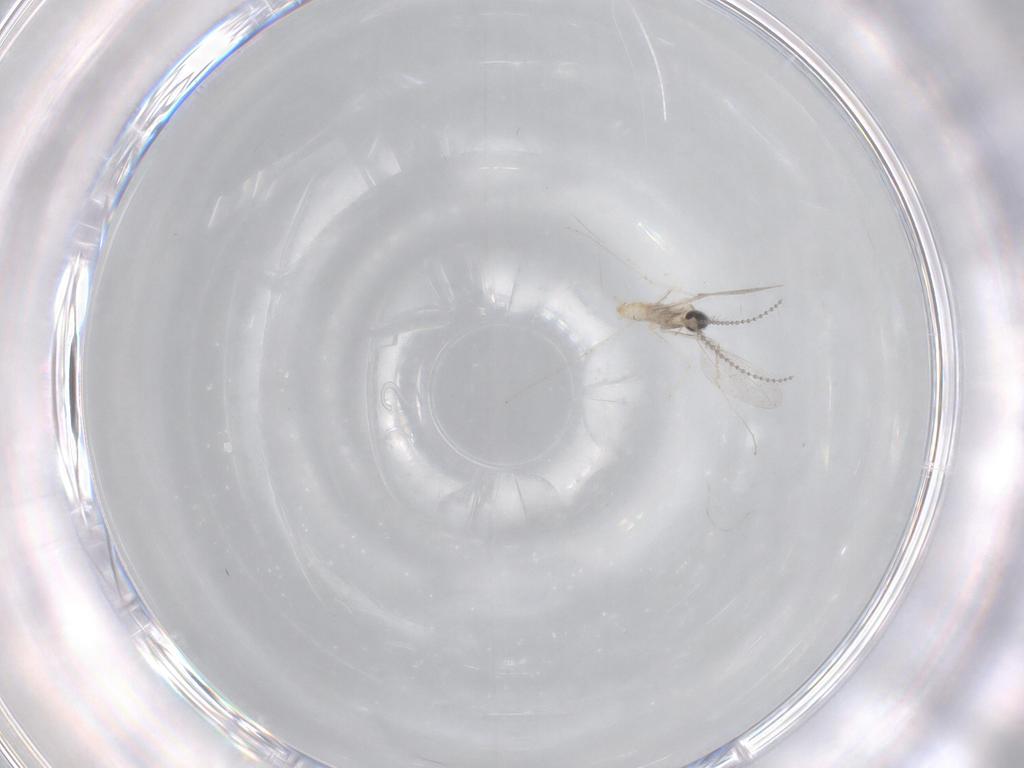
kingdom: Animalia
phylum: Arthropoda
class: Insecta
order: Diptera
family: Cecidomyiidae
